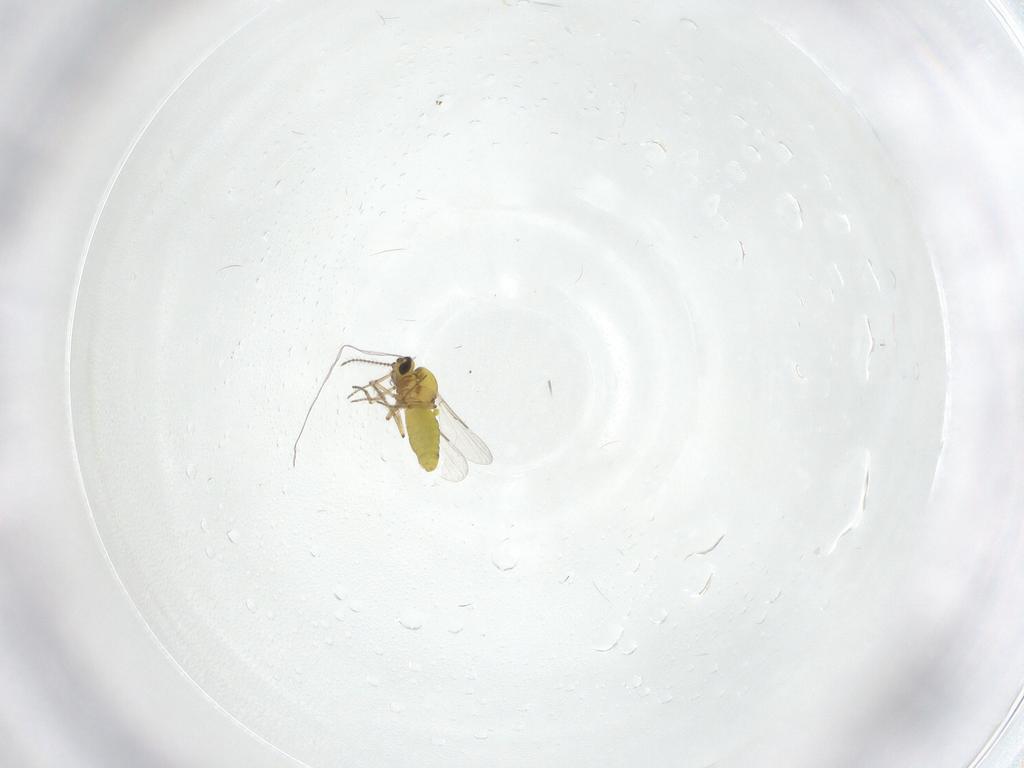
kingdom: Animalia
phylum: Arthropoda
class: Insecta
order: Diptera
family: Ceratopogonidae
